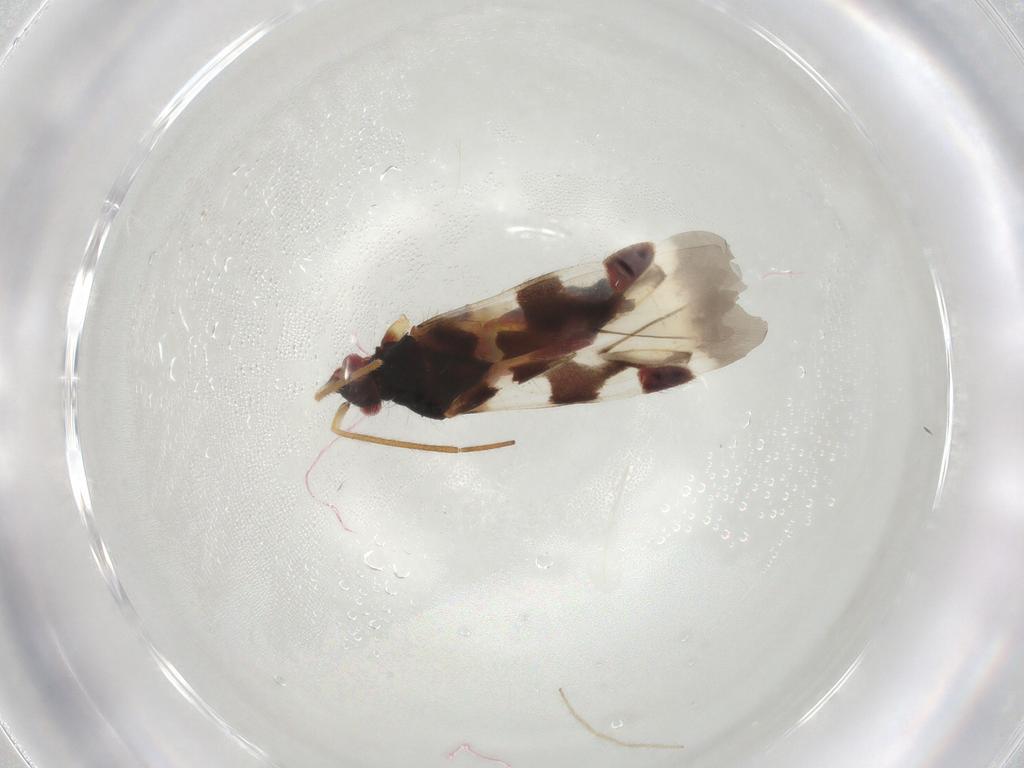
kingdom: Animalia
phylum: Arthropoda
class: Insecta
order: Hemiptera
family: Miridae
